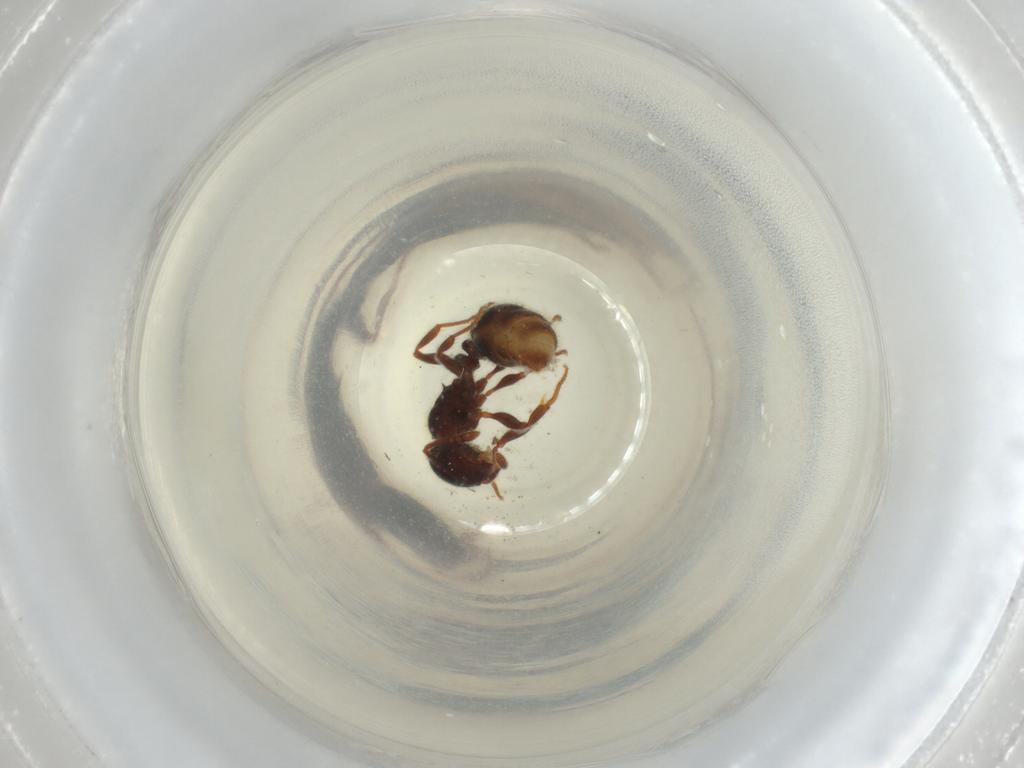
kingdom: Animalia
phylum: Arthropoda
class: Insecta
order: Hymenoptera
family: Formicidae
